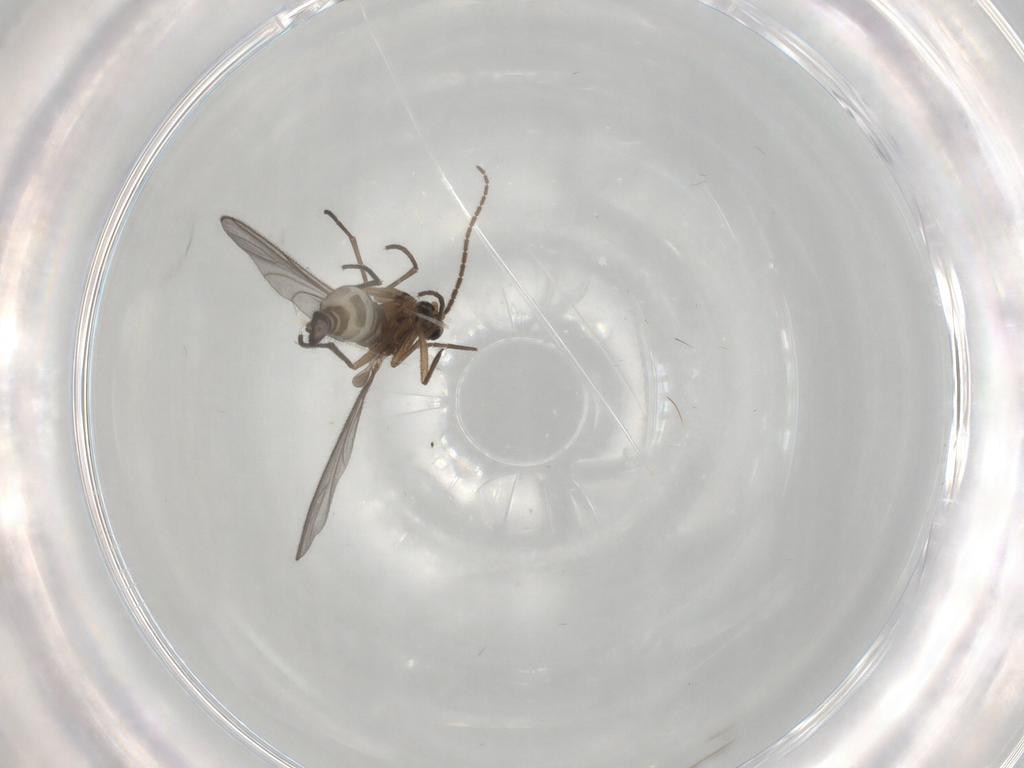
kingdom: Animalia
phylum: Arthropoda
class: Insecta
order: Diptera
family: Sciaridae
